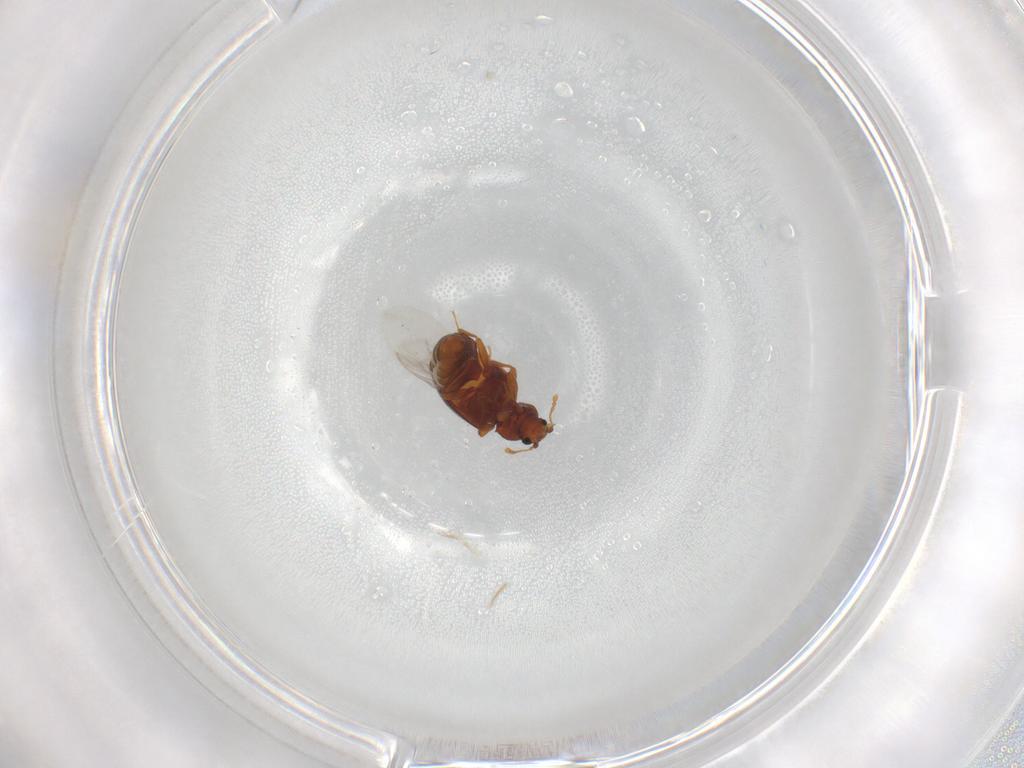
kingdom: Animalia
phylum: Arthropoda
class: Insecta
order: Coleoptera
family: Latridiidae
